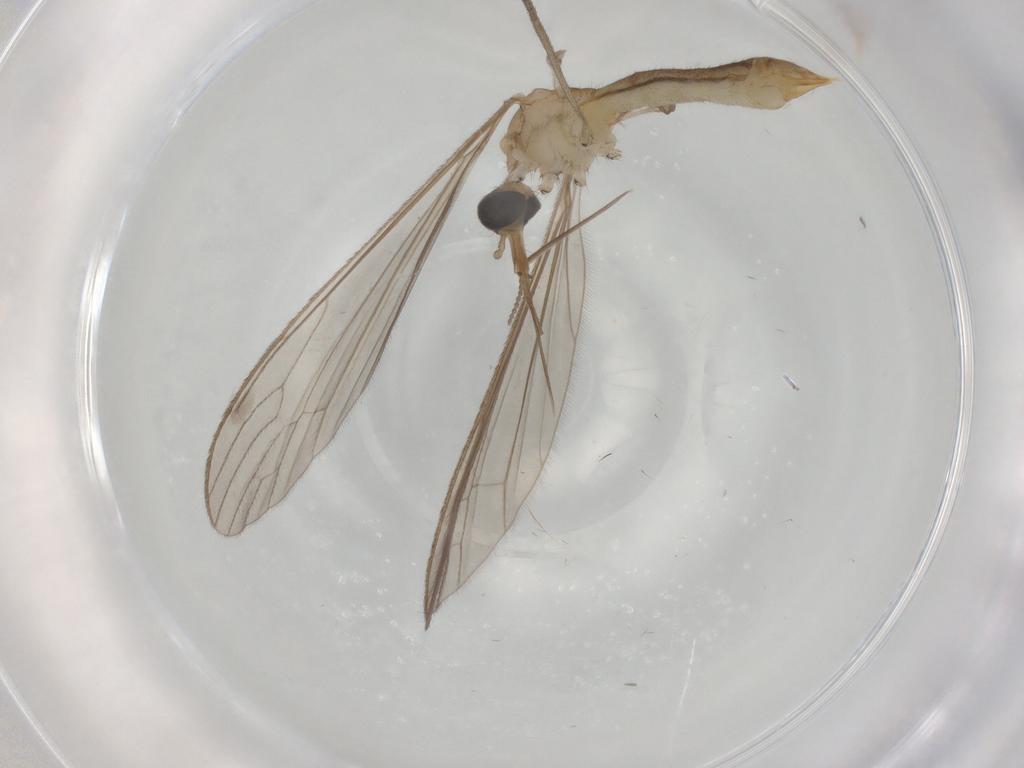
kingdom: Animalia
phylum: Arthropoda
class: Insecta
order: Diptera
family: Limoniidae
